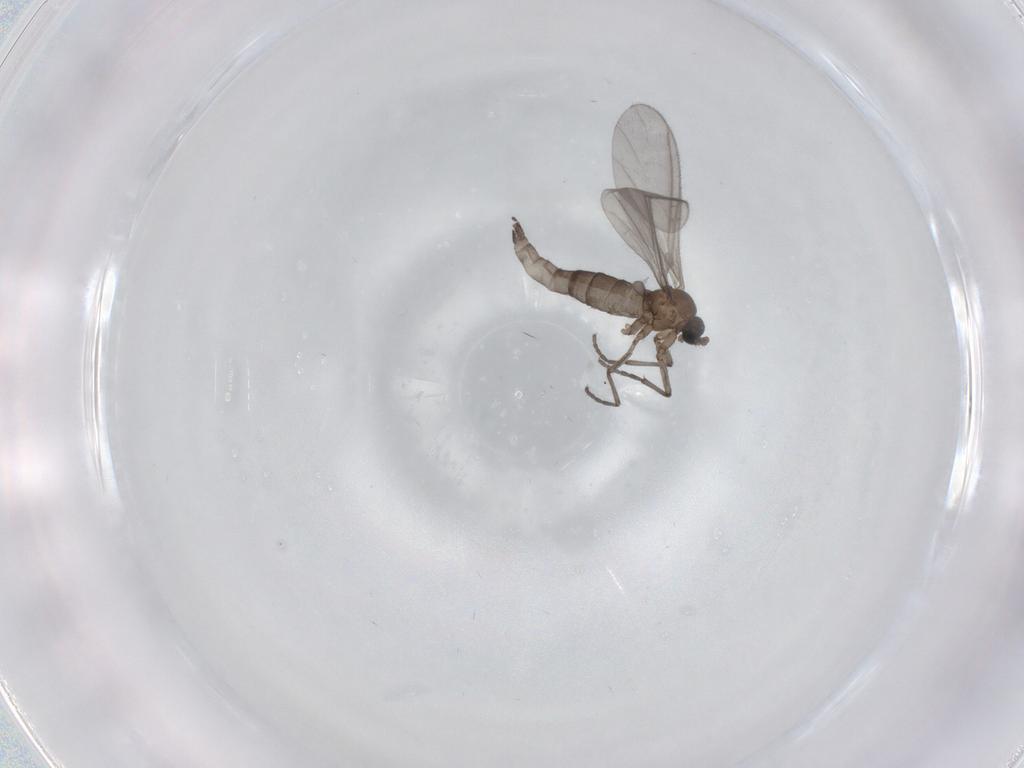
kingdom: Animalia
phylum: Arthropoda
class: Insecta
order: Diptera
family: Sciaridae
